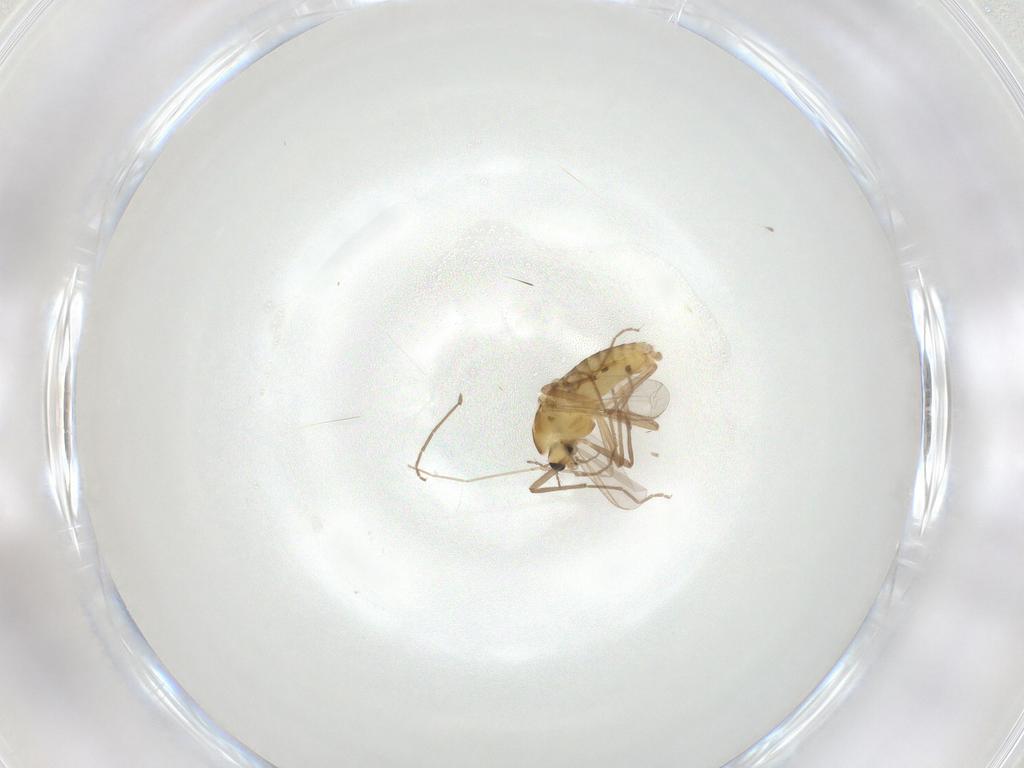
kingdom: Animalia
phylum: Arthropoda
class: Insecta
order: Diptera
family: Chironomidae
